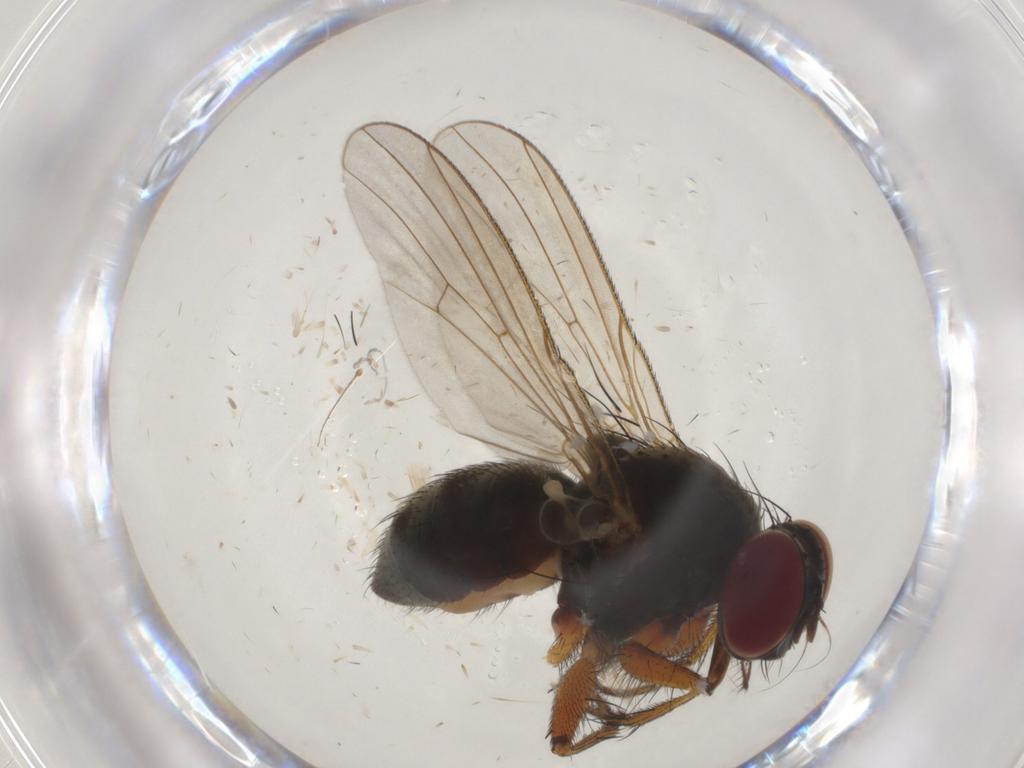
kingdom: Animalia
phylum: Arthropoda
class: Insecta
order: Diptera
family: Muscidae
